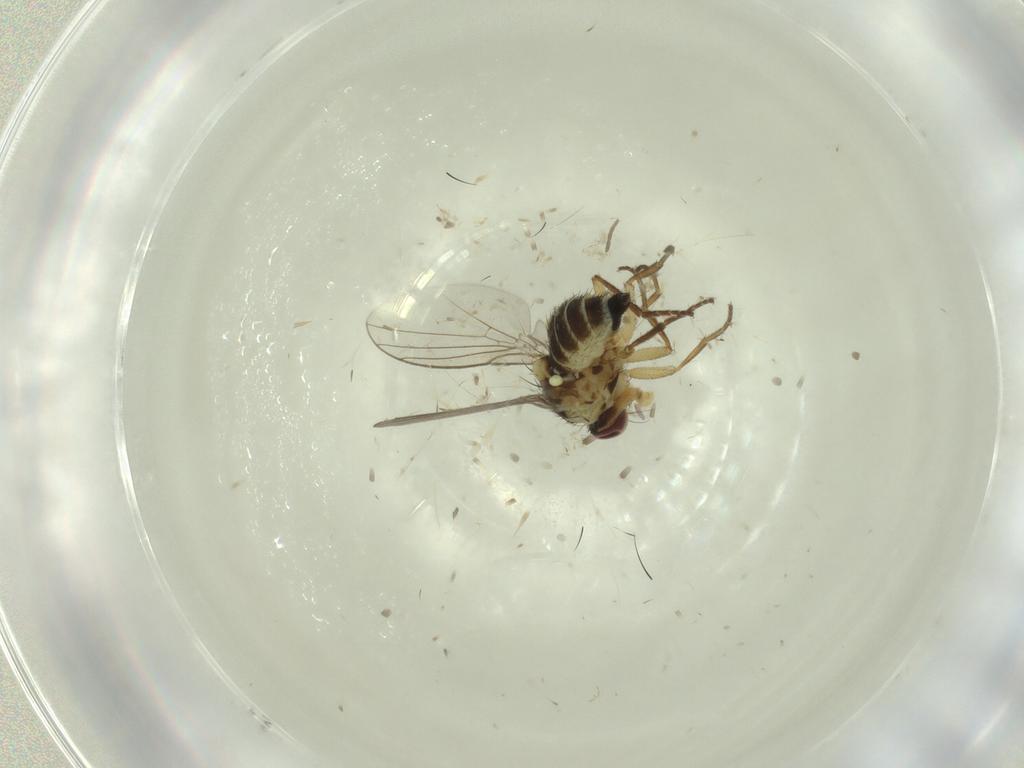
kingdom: Animalia
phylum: Arthropoda
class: Insecta
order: Diptera
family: Agromyzidae
